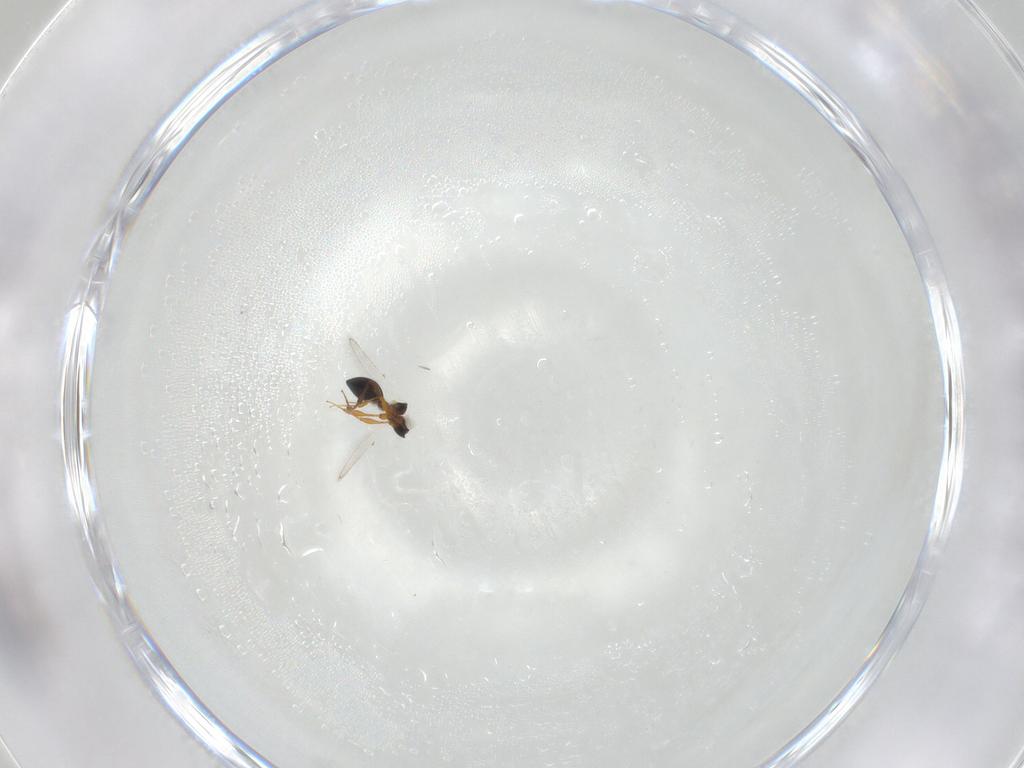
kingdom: Animalia
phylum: Arthropoda
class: Insecta
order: Hymenoptera
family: Platygastridae
